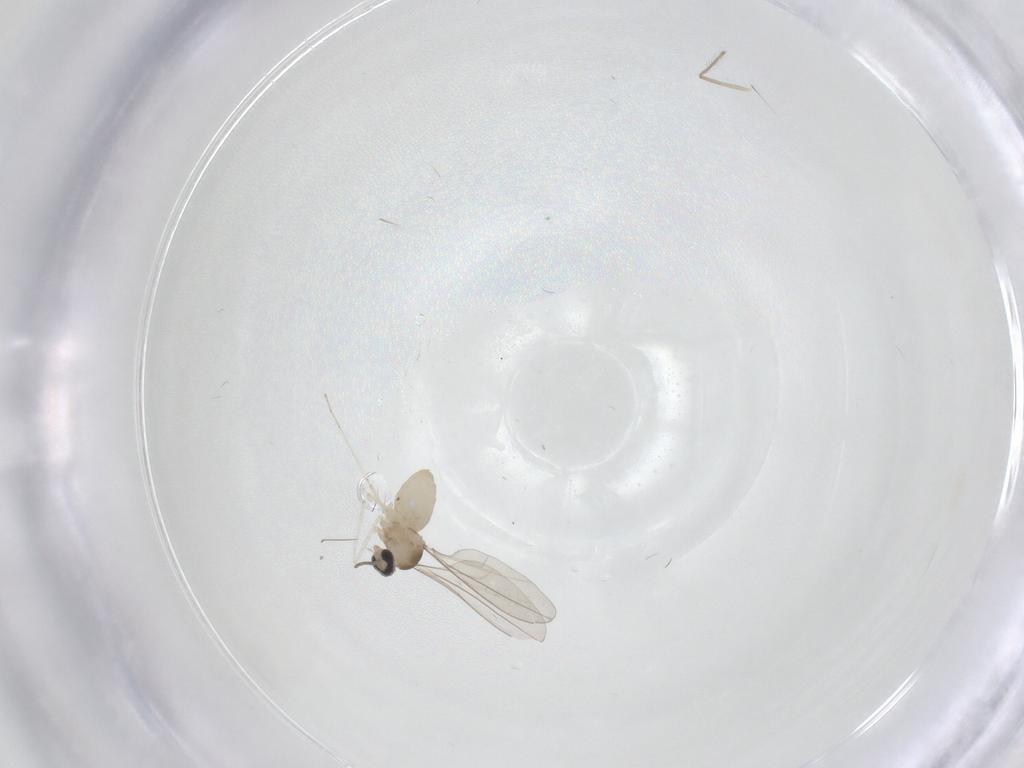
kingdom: Animalia
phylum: Arthropoda
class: Insecta
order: Diptera
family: Cecidomyiidae
